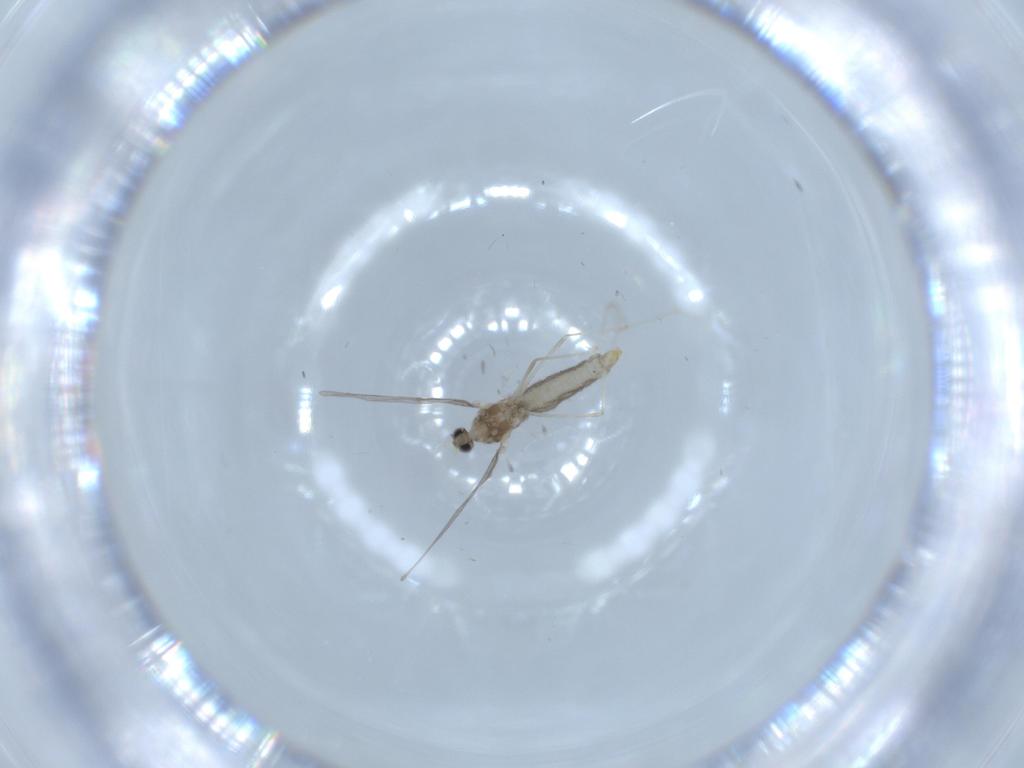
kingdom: Animalia
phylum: Arthropoda
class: Insecta
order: Diptera
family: Cecidomyiidae
